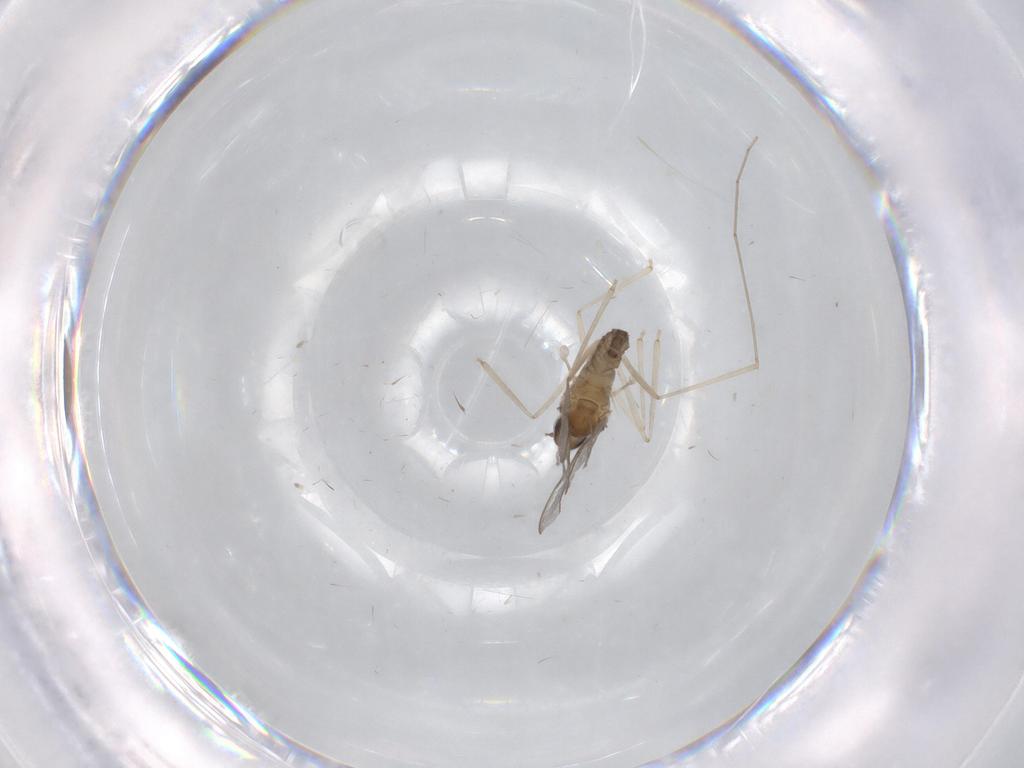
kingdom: Animalia
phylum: Arthropoda
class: Insecta
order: Diptera
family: Cecidomyiidae
